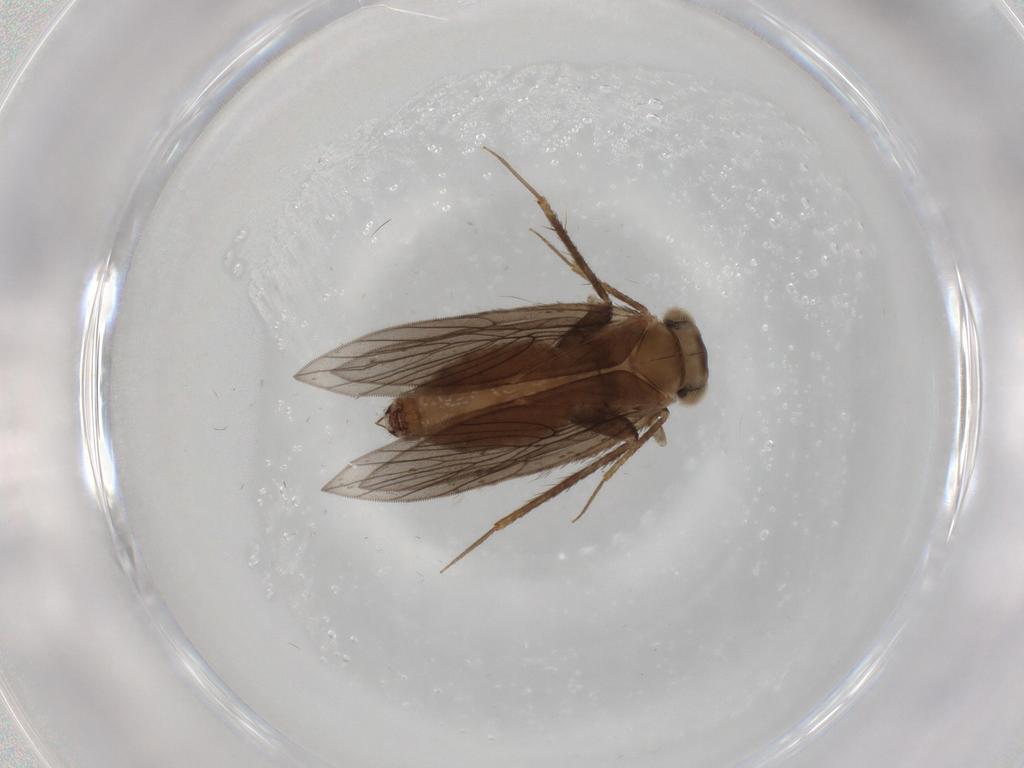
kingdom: Animalia
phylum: Arthropoda
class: Insecta
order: Psocodea
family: Lepidopsocidae
